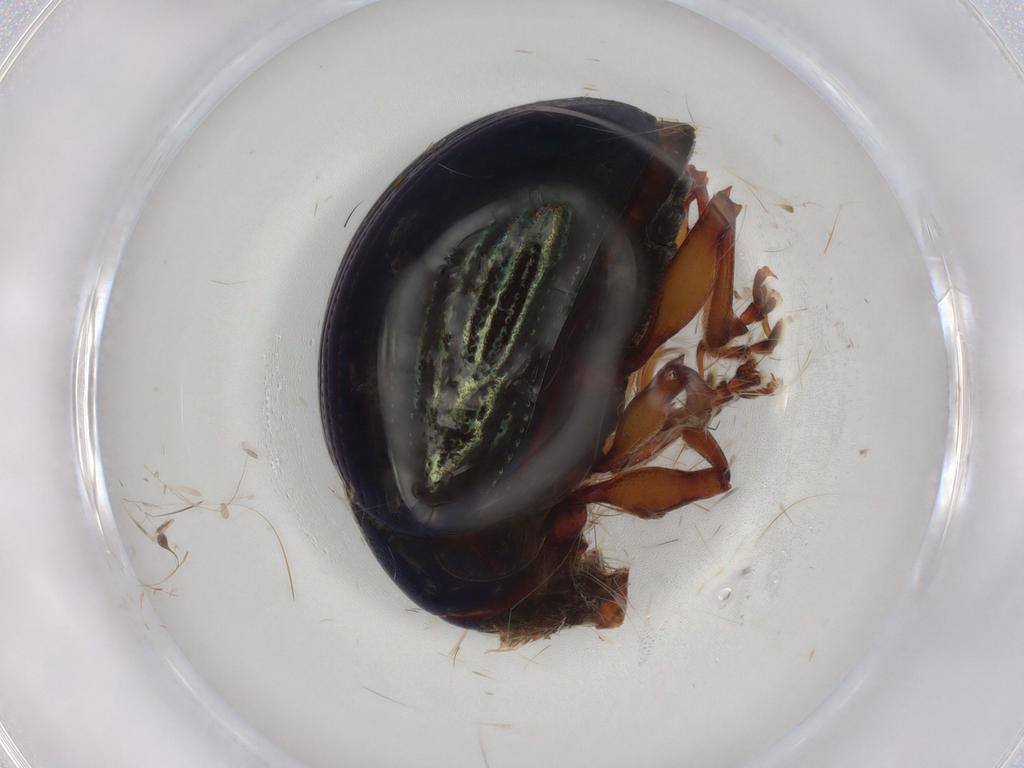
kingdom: Animalia
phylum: Arthropoda
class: Insecta
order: Coleoptera
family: Chrysomelidae
